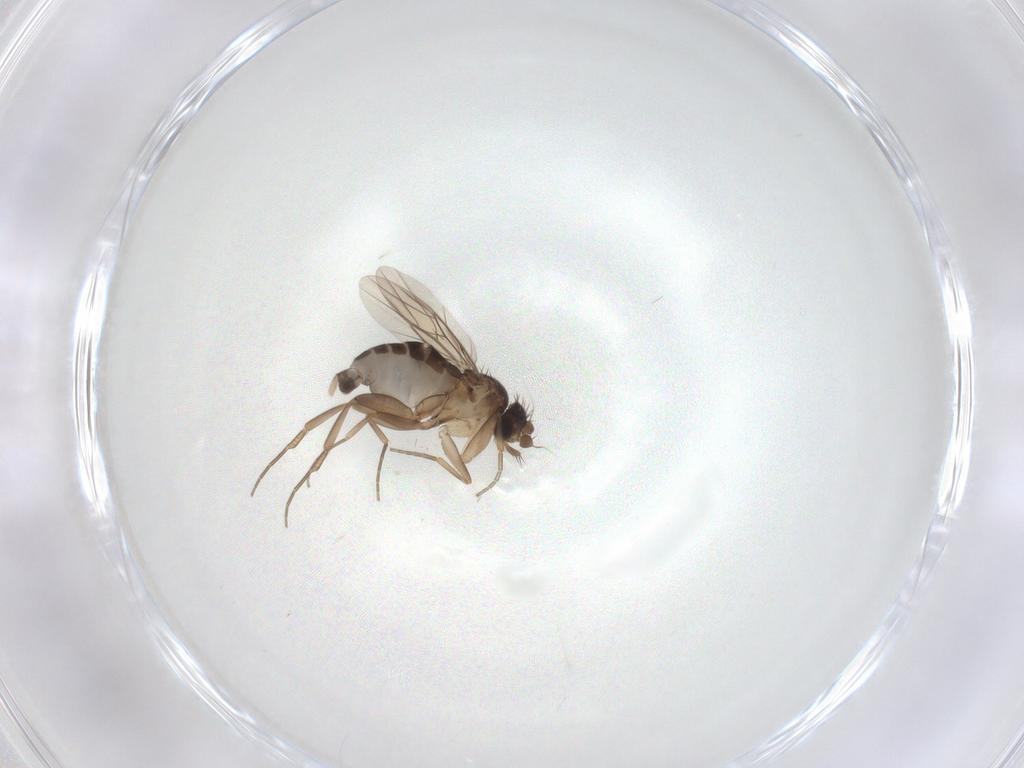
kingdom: Animalia
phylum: Arthropoda
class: Insecta
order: Diptera
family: Phoridae
